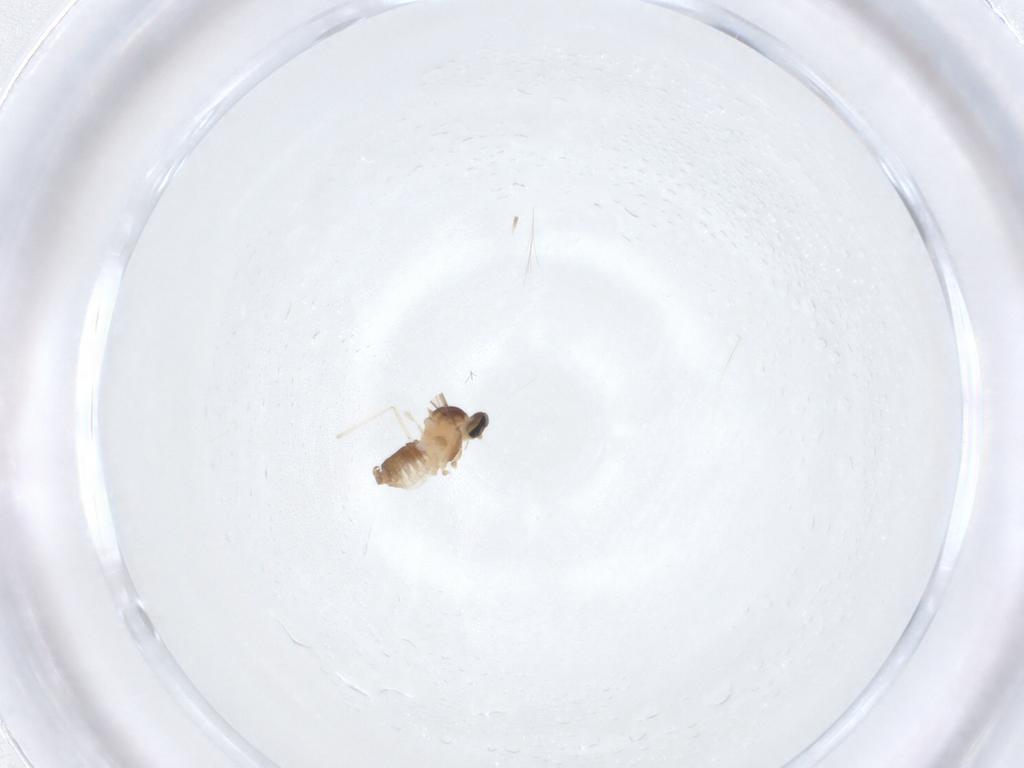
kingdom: Animalia
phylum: Arthropoda
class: Insecta
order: Diptera
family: Cecidomyiidae
